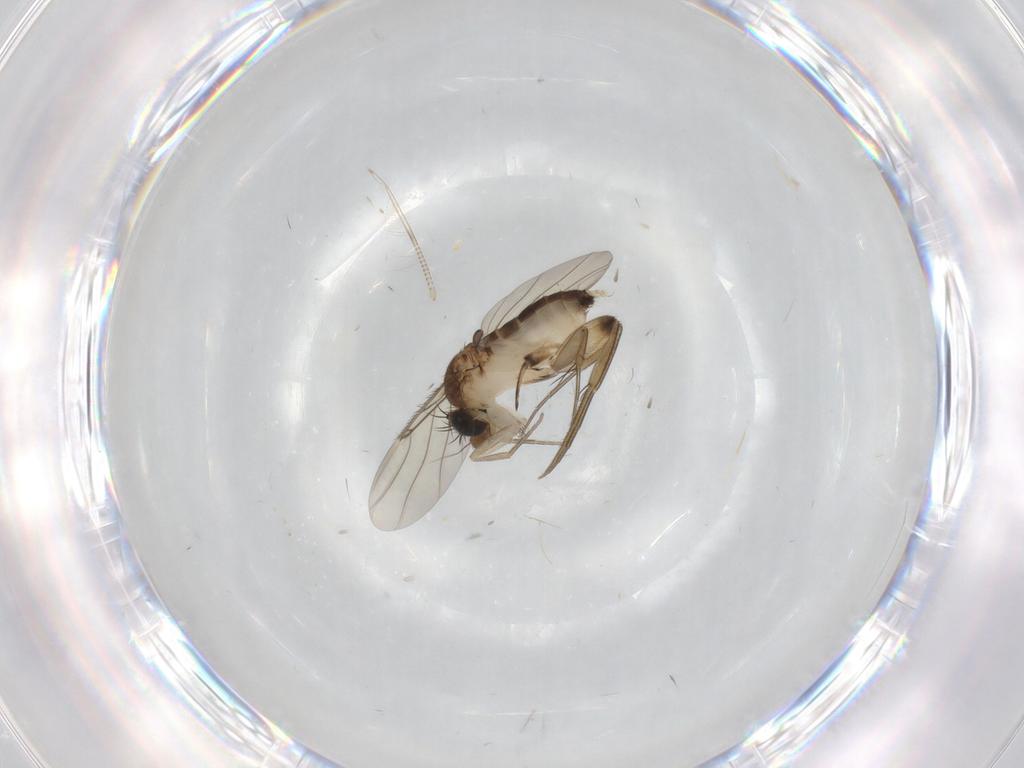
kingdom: Animalia
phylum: Arthropoda
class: Insecta
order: Diptera
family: Phoridae
